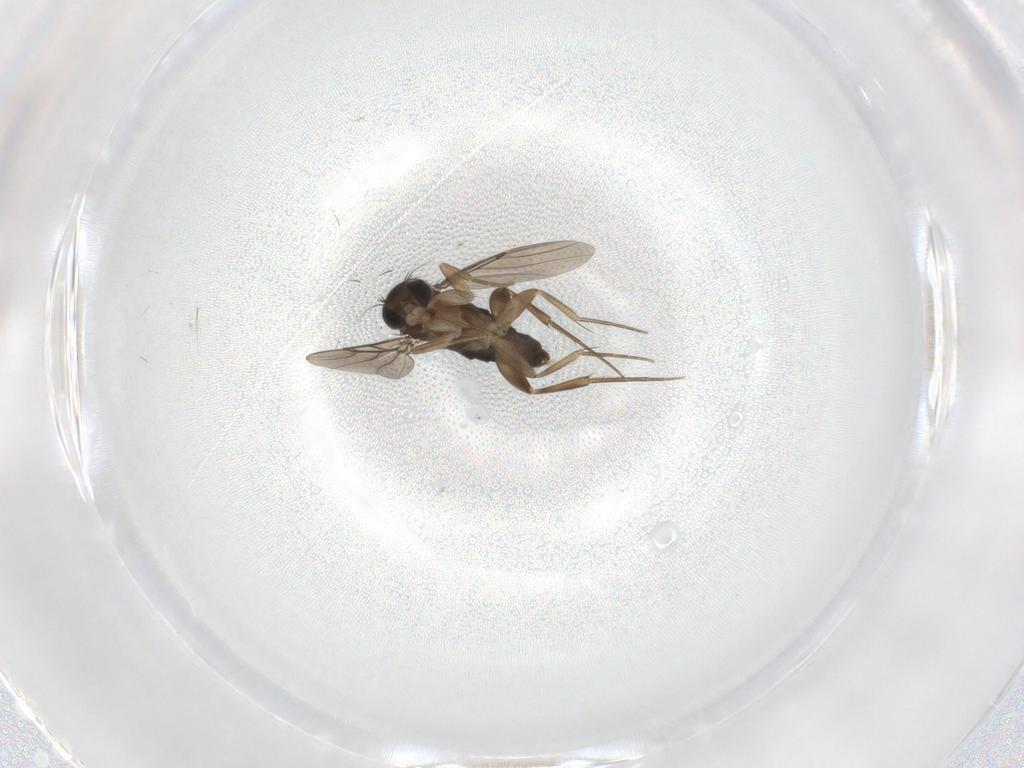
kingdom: Animalia
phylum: Arthropoda
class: Insecta
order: Diptera
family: Phoridae
